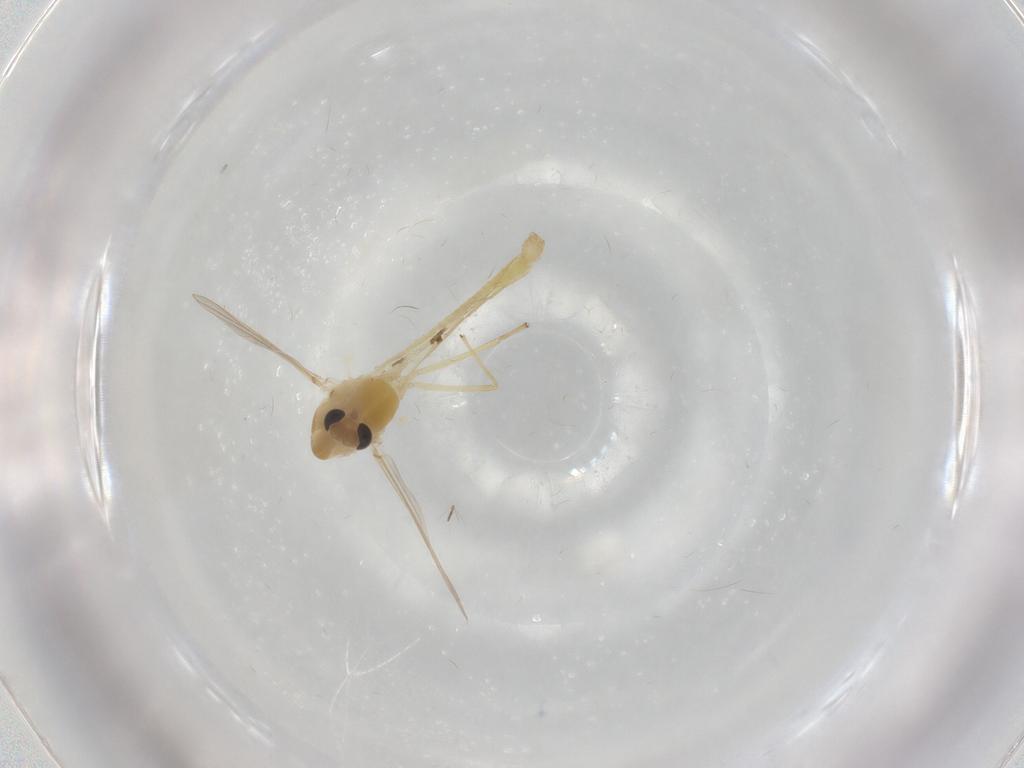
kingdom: Animalia
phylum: Arthropoda
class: Insecta
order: Diptera
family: Chironomidae
